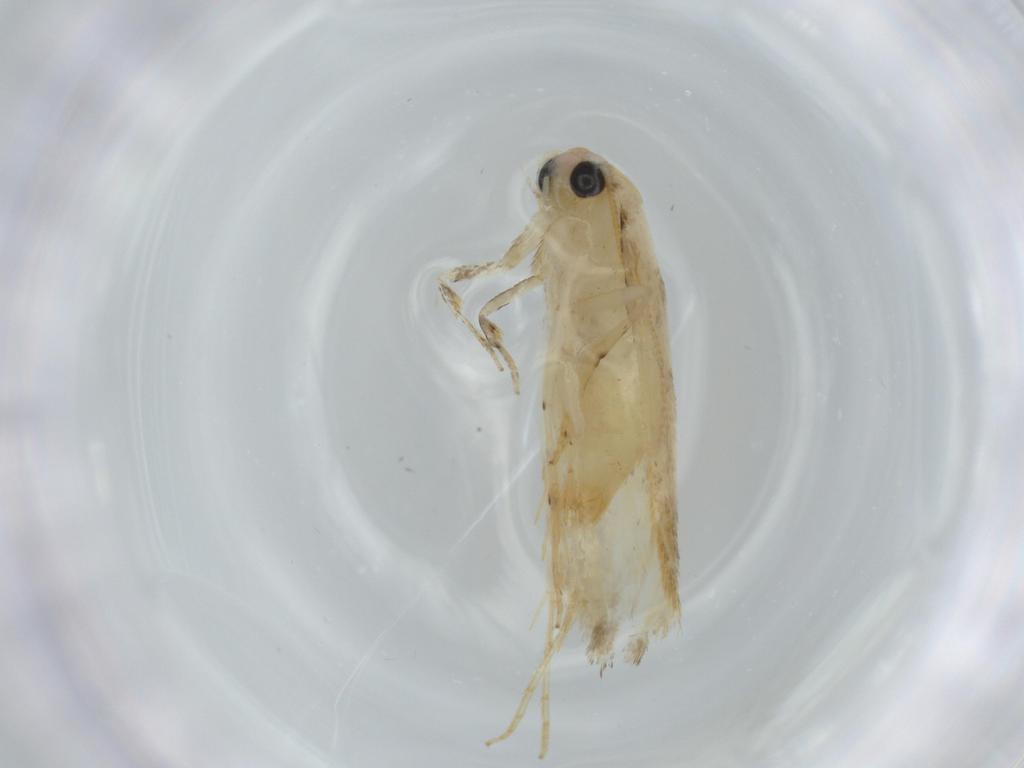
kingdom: Animalia
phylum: Arthropoda
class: Insecta
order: Lepidoptera
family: Tineidae
